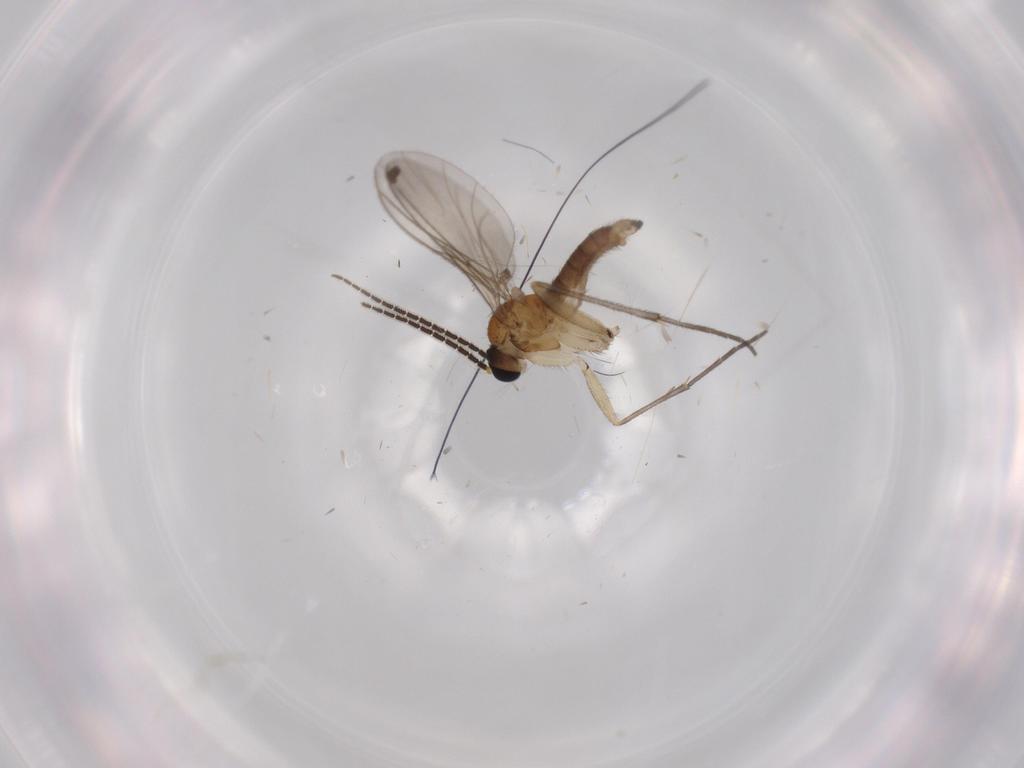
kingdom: Animalia
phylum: Arthropoda
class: Insecta
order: Diptera
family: Sciaridae
